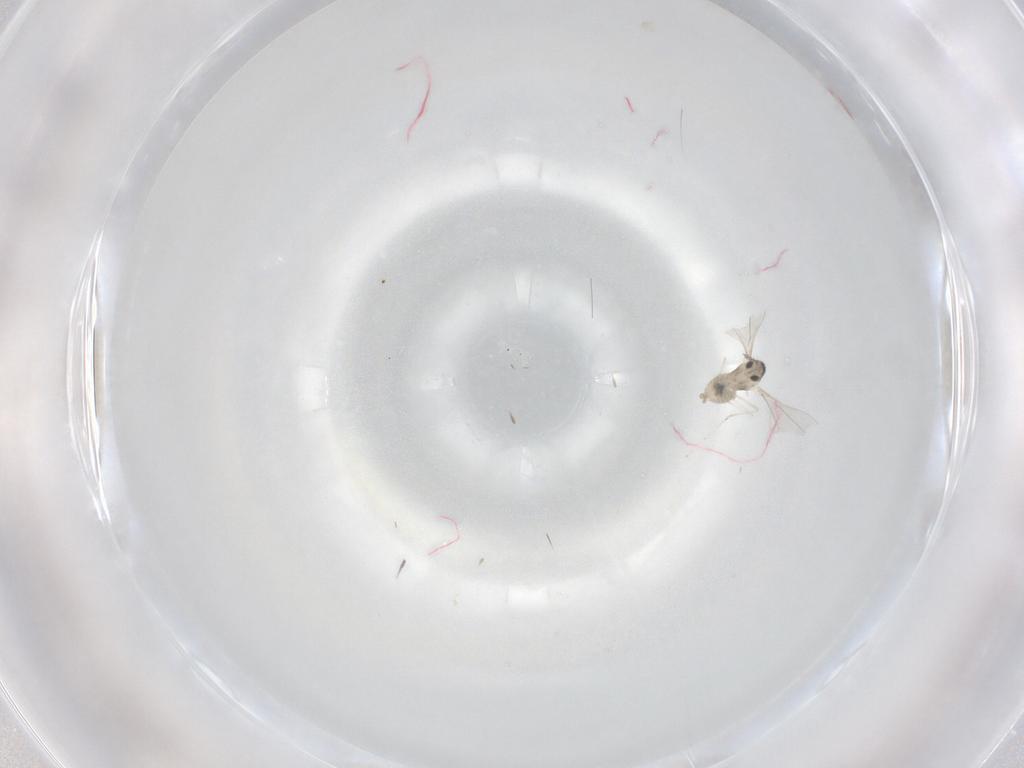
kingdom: Animalia
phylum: Arthropoda
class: Insecta
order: Diptera
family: Cecidomyiidae
